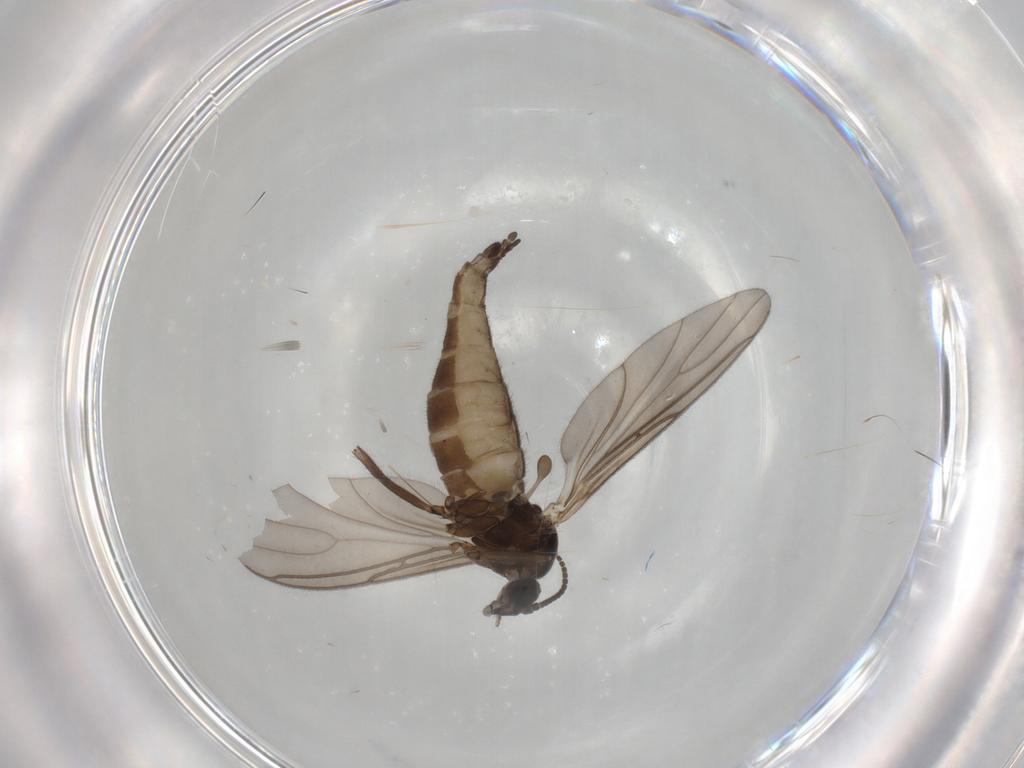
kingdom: Animalia
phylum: Arthropoda
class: Insecta
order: Diptera
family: Sciaridae
